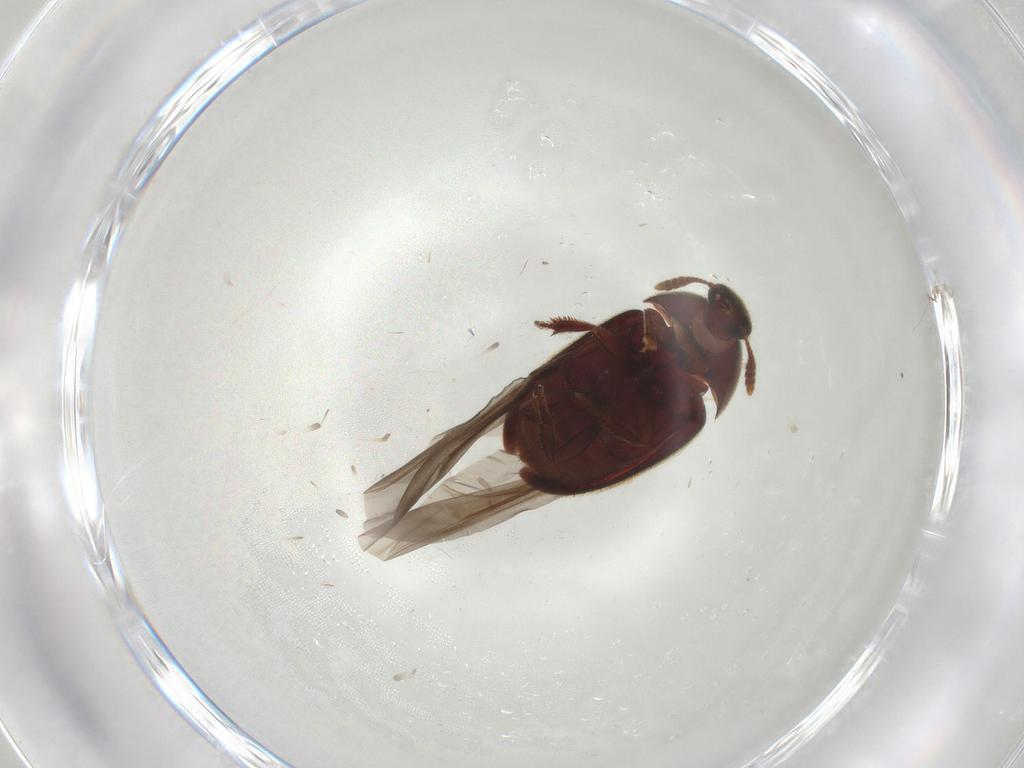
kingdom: Animalia
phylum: Arthropoda
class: Insecta
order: Coleoptera
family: Leiodidae
